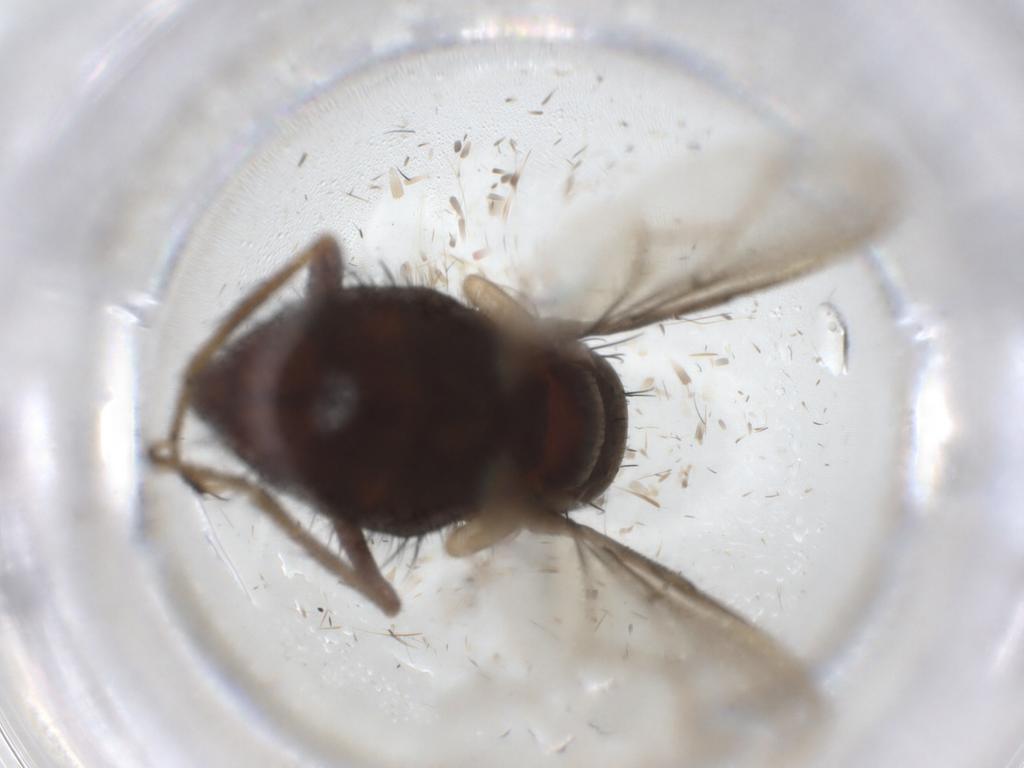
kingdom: Animalia
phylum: Arthropoda
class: Insecta
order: Diptera
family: Tachinidae
